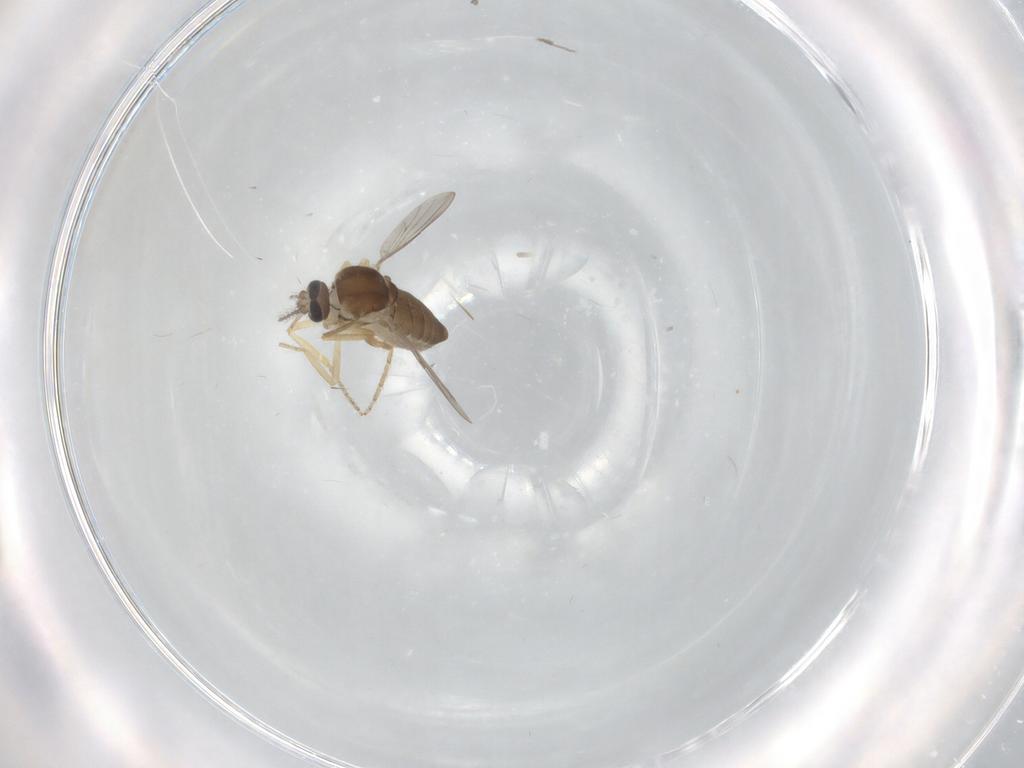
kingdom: Animalia
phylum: Arthropoda
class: Insecta
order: Diptera
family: Ceratopogonidae
